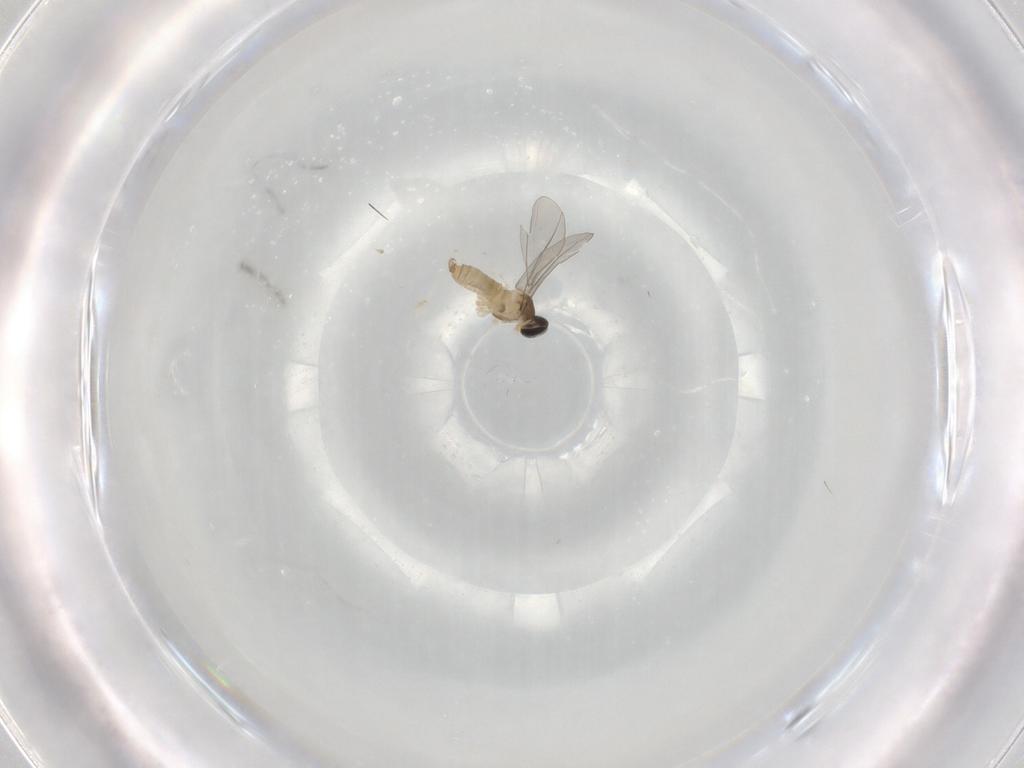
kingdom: Animalia
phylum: Arthropoda
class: Insecta
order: Diptera
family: Cecidomyiidae
